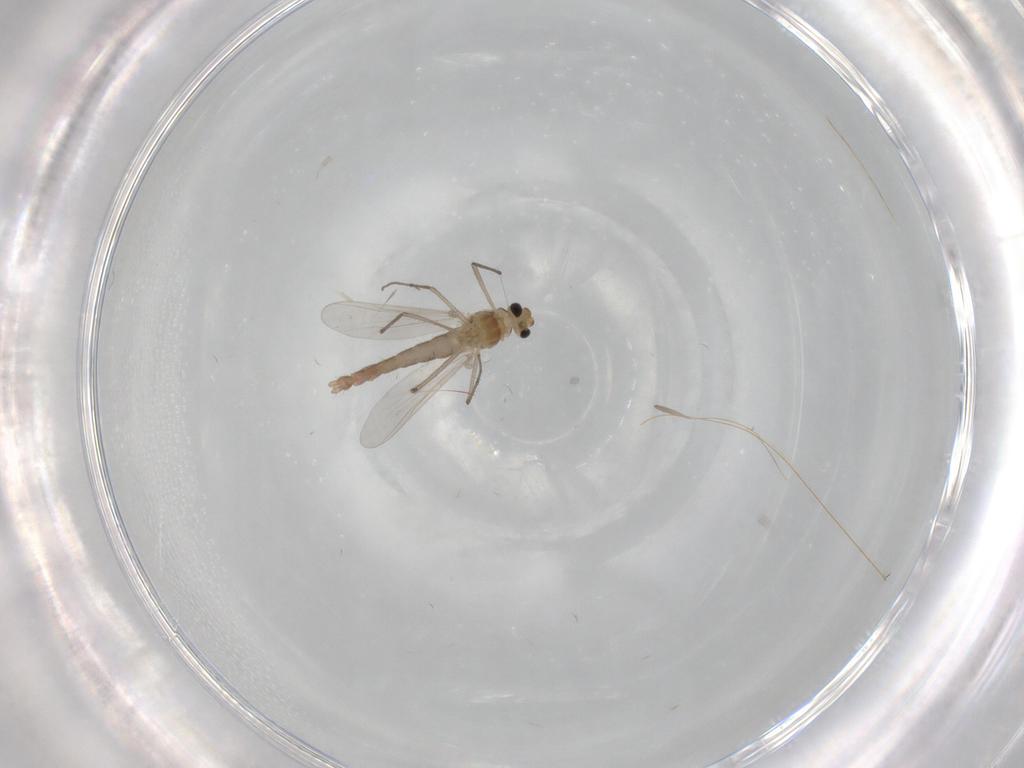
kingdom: Animalia
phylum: Arthropoda
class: Insecta
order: Diptera
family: Chironomidae
